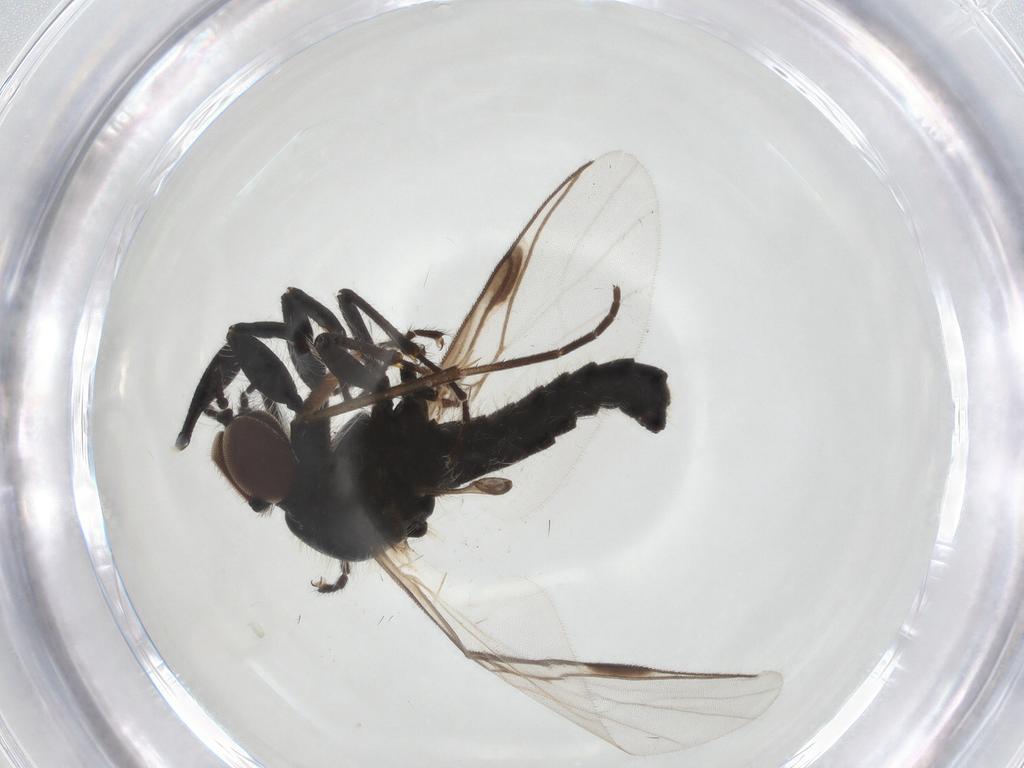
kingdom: Animalia
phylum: Arthropoda
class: Insecta
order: Diptera
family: Bibionidae
